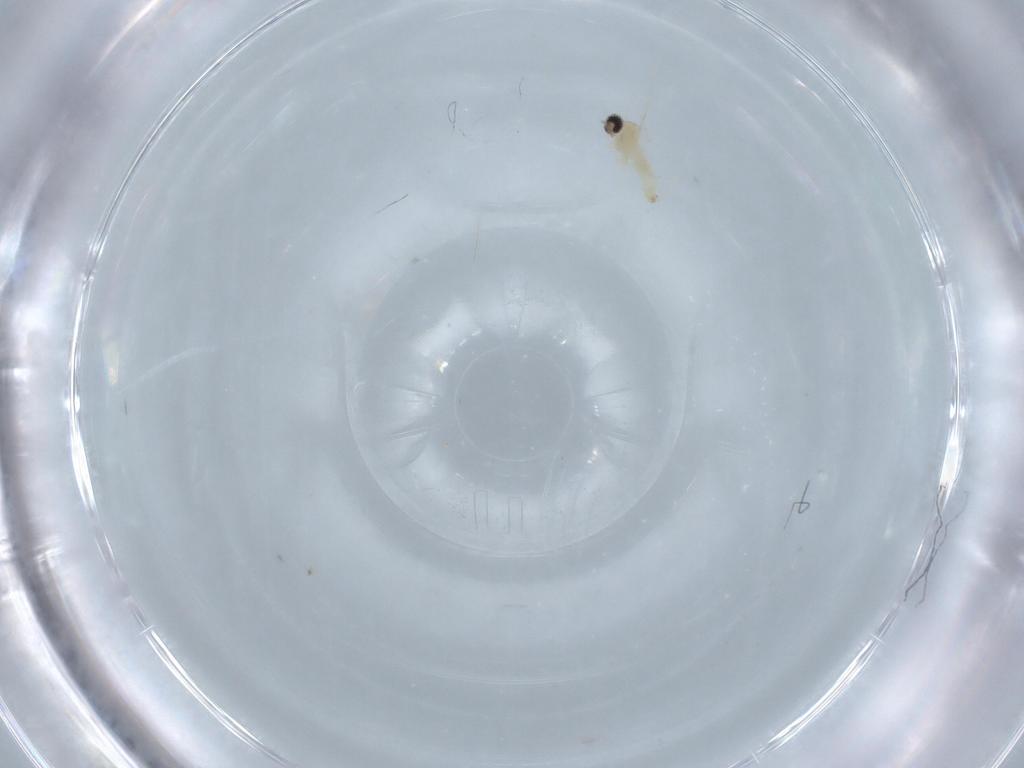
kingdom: Animalia
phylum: Arthropoda
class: Insecta
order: Diptera
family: Cecidomyiidae
